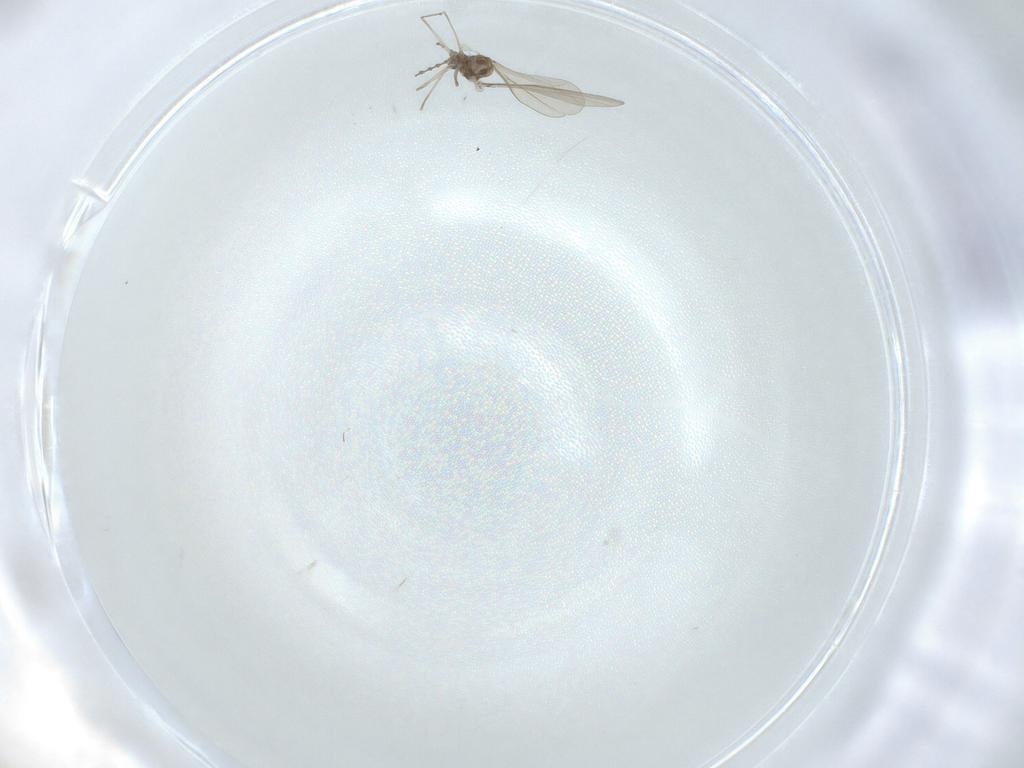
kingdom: Animalia
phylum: Arthropoda
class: Insecta
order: Diptera
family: Cecidomyiidae
